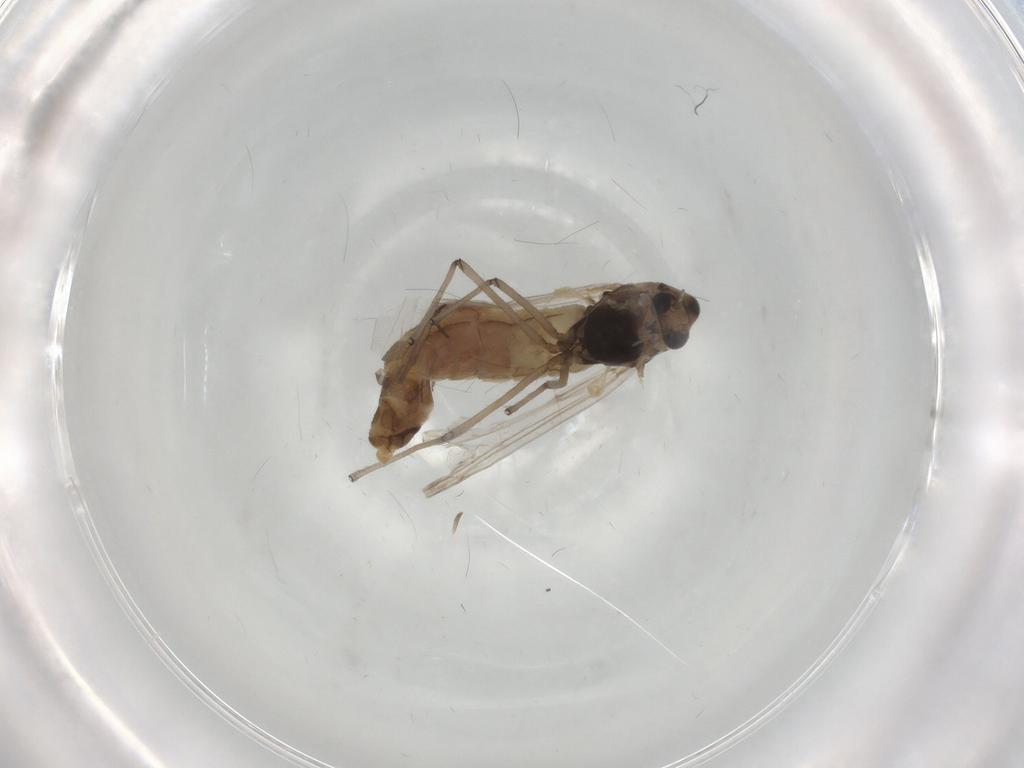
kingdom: Animalia
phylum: Arthropoda
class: Insecta
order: Diptera
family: Chironomidae
